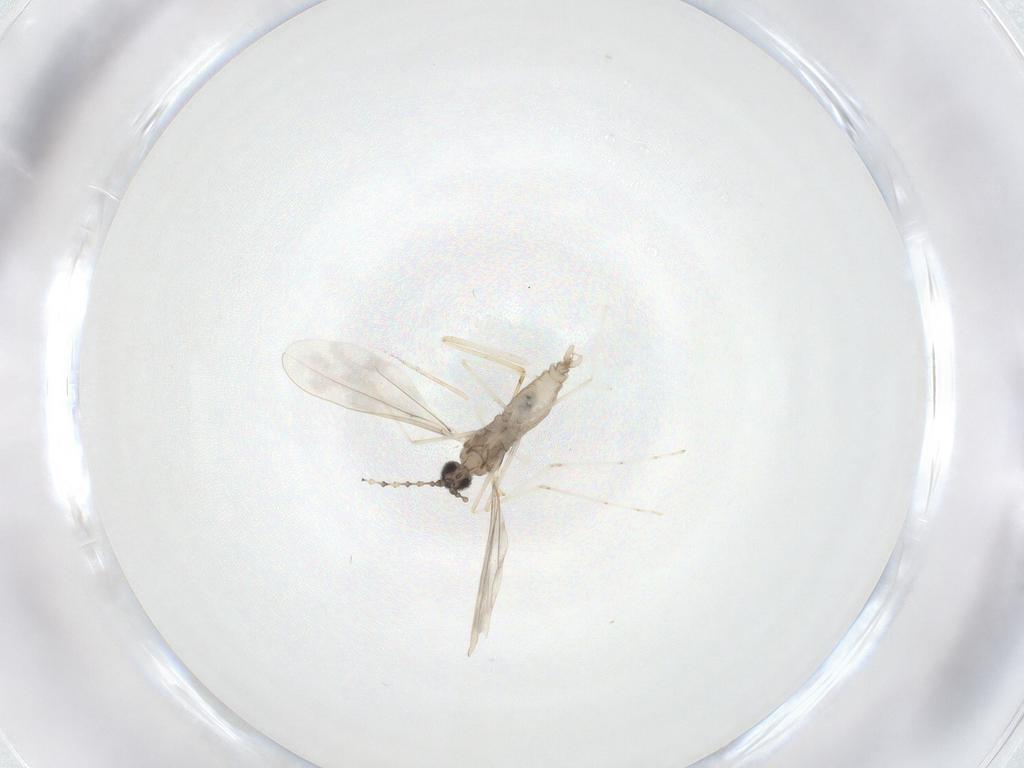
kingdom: Animalia
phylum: Arthropoda
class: Insecta
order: Diptera
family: Cecidomyiidae
